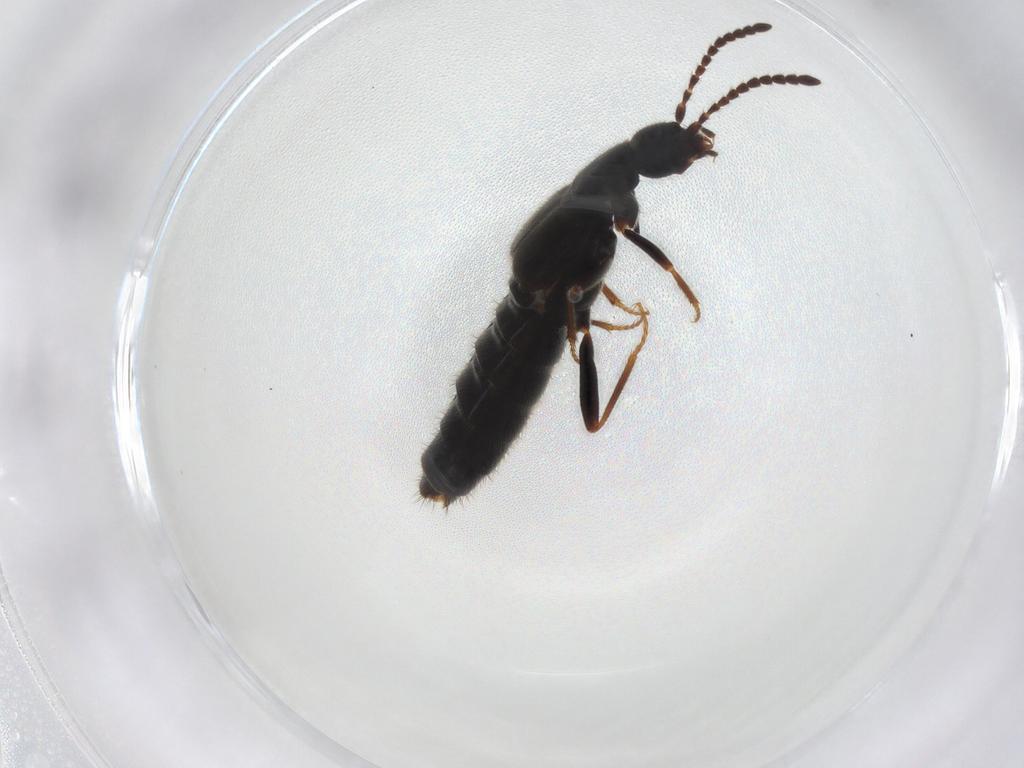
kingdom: Animalia
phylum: Arthropoda
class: Insecta
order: Coleoptera
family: Staphylinidae
